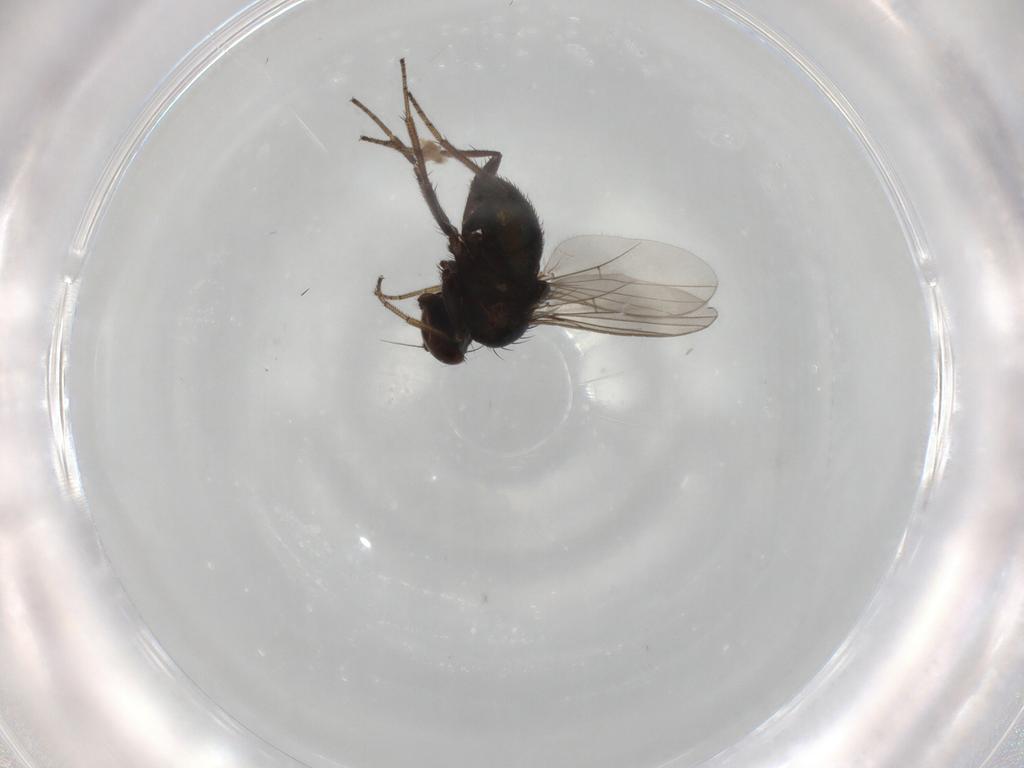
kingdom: Animalia
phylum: Arthropoda
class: Insecta
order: Diptera
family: Dolichopodidae
